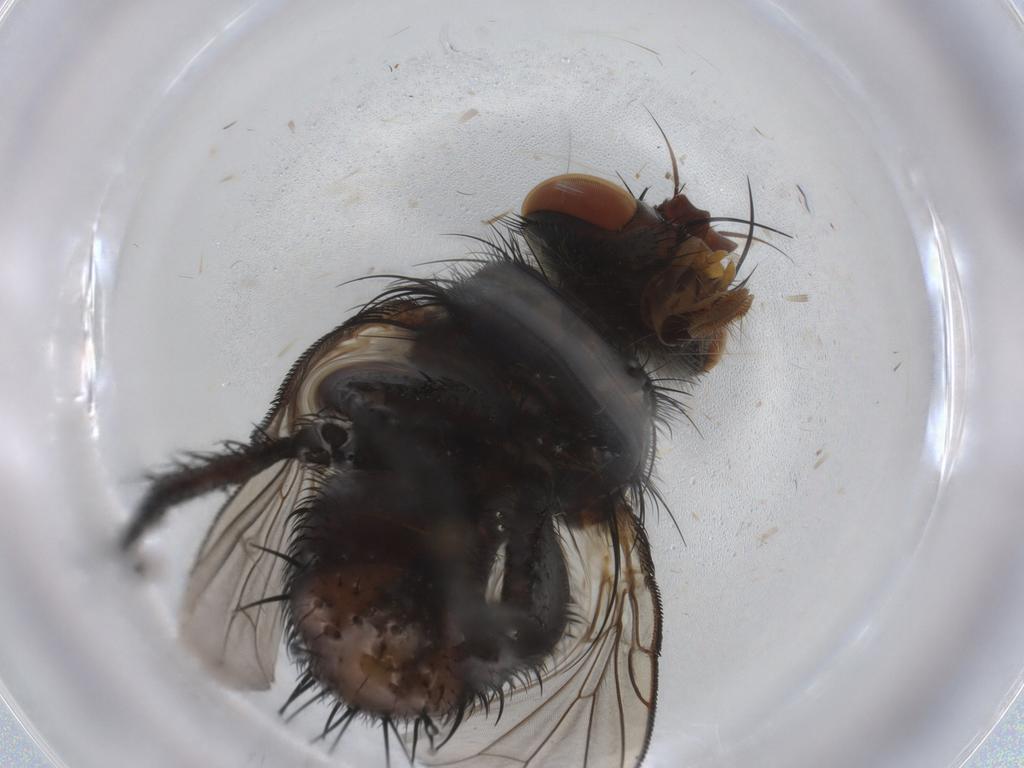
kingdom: Animalia
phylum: Arthropoda
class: Insecta
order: Diptera
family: Tachinidae
